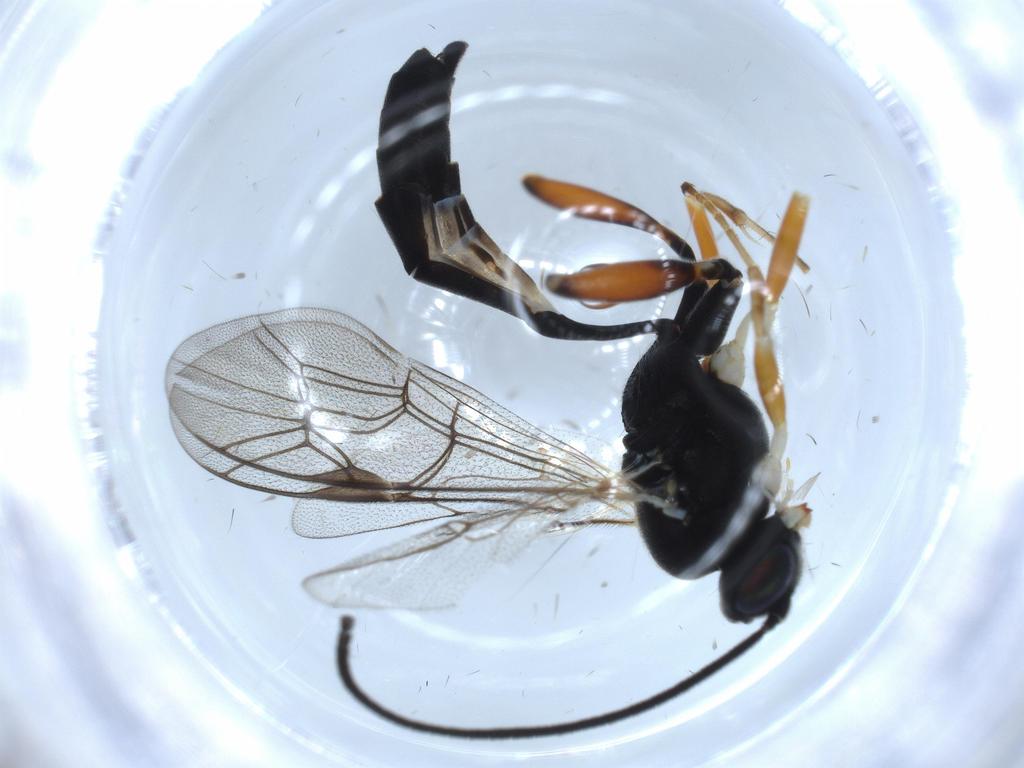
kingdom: Animalia
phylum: Arthropoda
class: Insecta
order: Hymenoptera
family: Ichneumonidae
